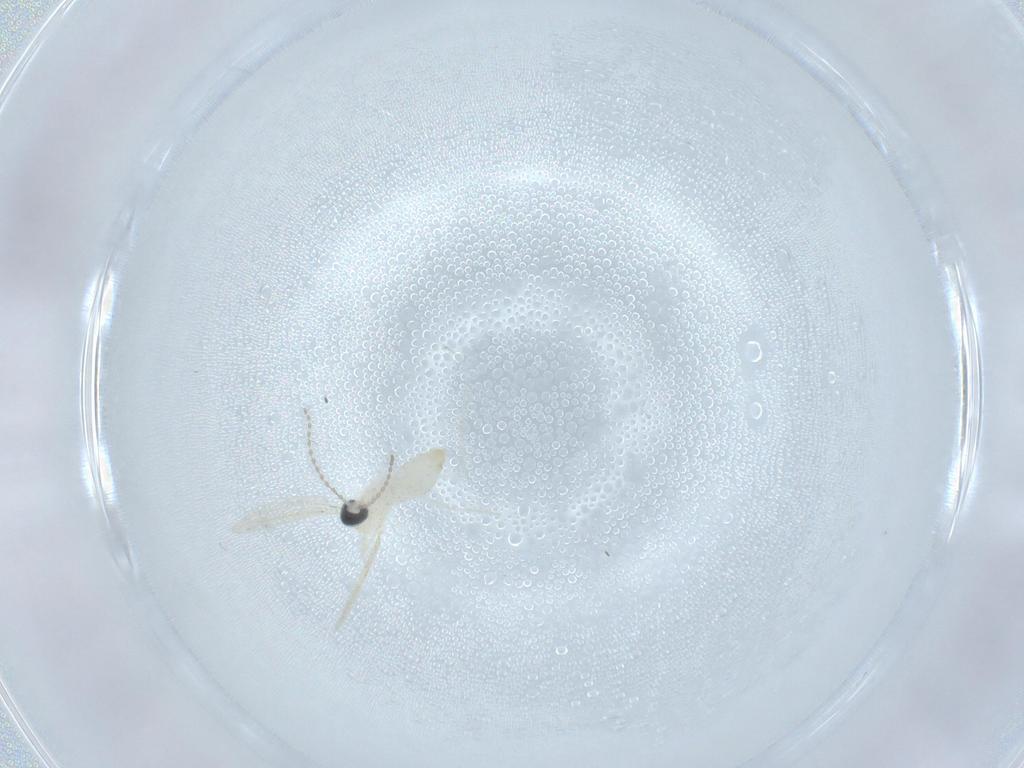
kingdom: Animalia
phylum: Arthropoda
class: Insecta
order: Diptera
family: Cecidomyiidae
